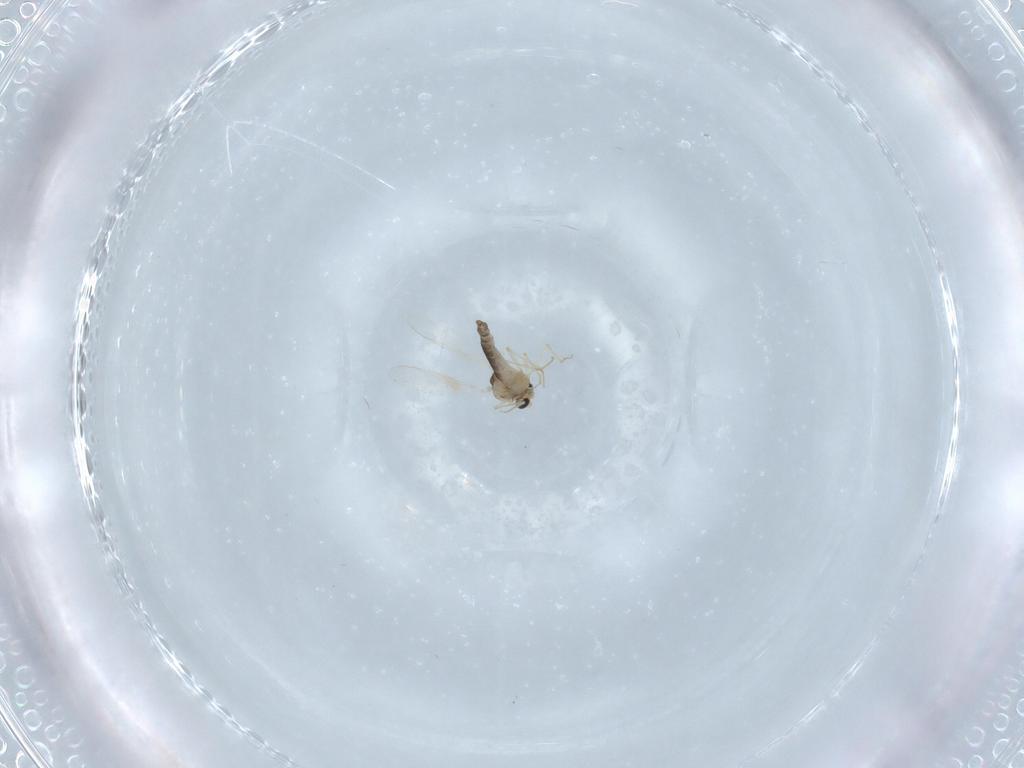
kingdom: Animalia
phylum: Arthropoda
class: Insecta
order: Diptera
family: Chironomidae
